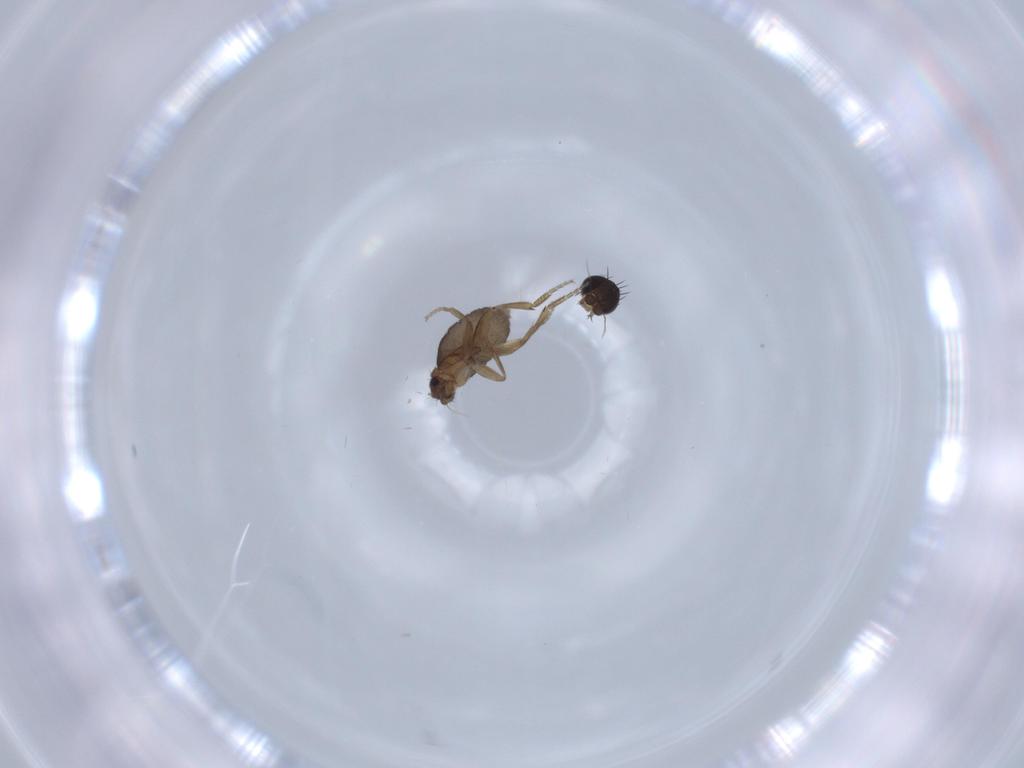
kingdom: Animalia
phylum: Arthropoda
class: Insecta
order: Diptera
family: Phoridae
